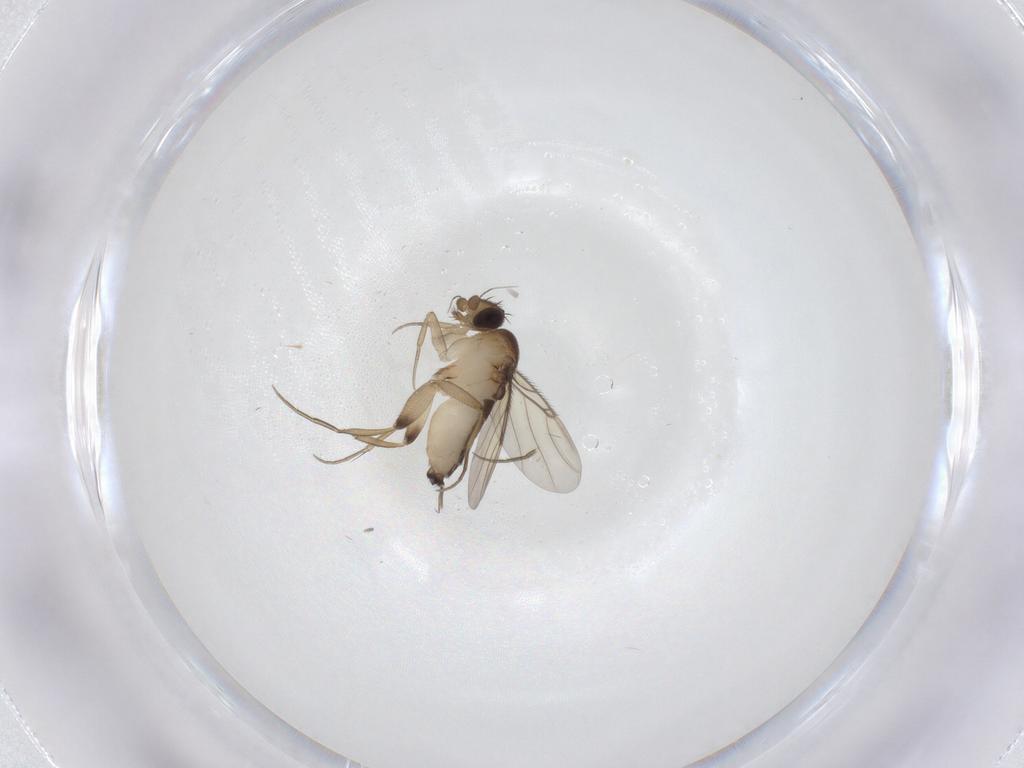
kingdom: Animalia
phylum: Arthropoda
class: Insecta
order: Diptera
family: Phoridae
